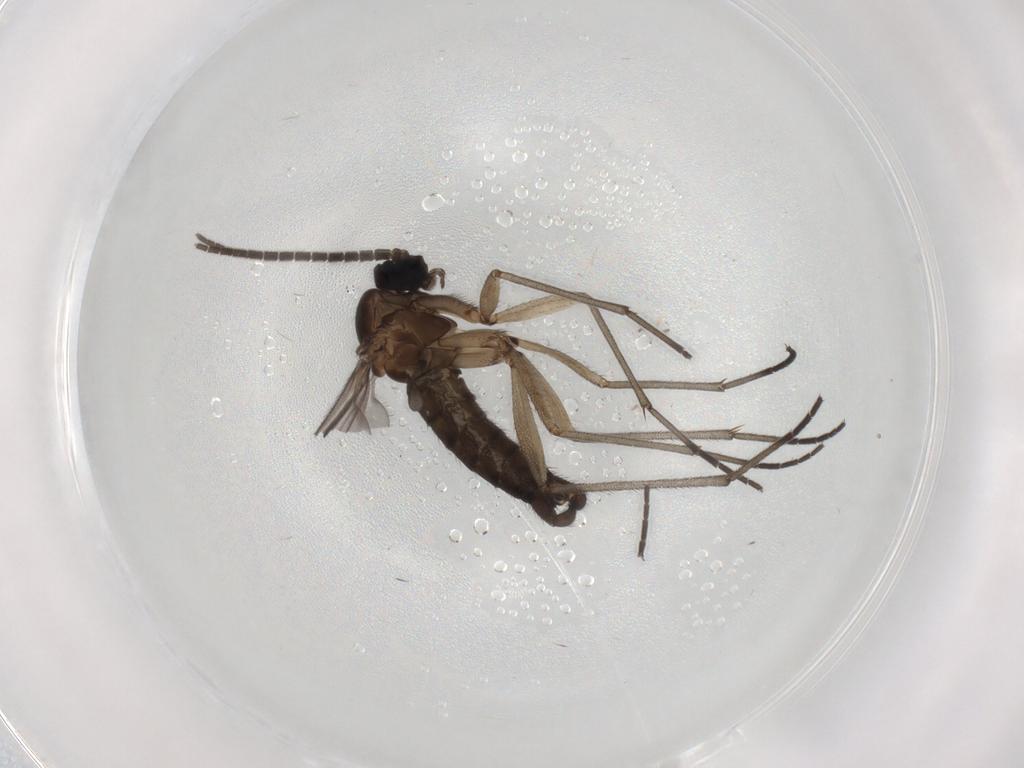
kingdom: Animalia
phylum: Arthropoda
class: Insecta
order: Diptera
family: Sciaridae
